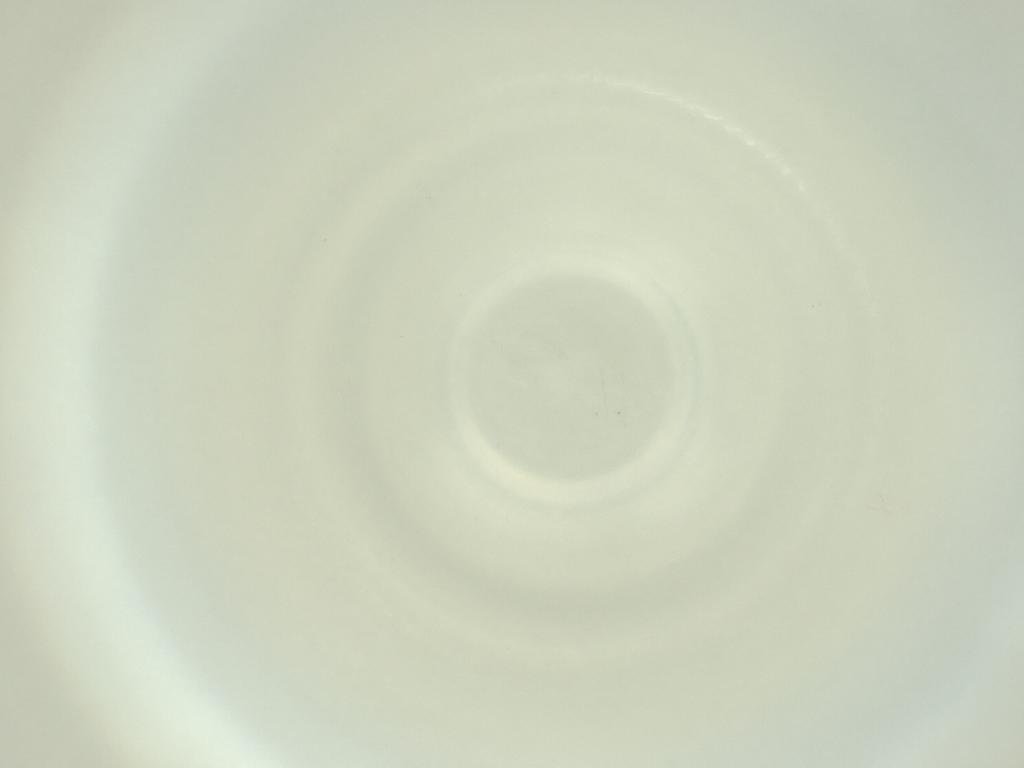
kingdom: Animalia
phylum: Arthropoda
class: Insecta
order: Diptera
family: Cecidomyiidae
